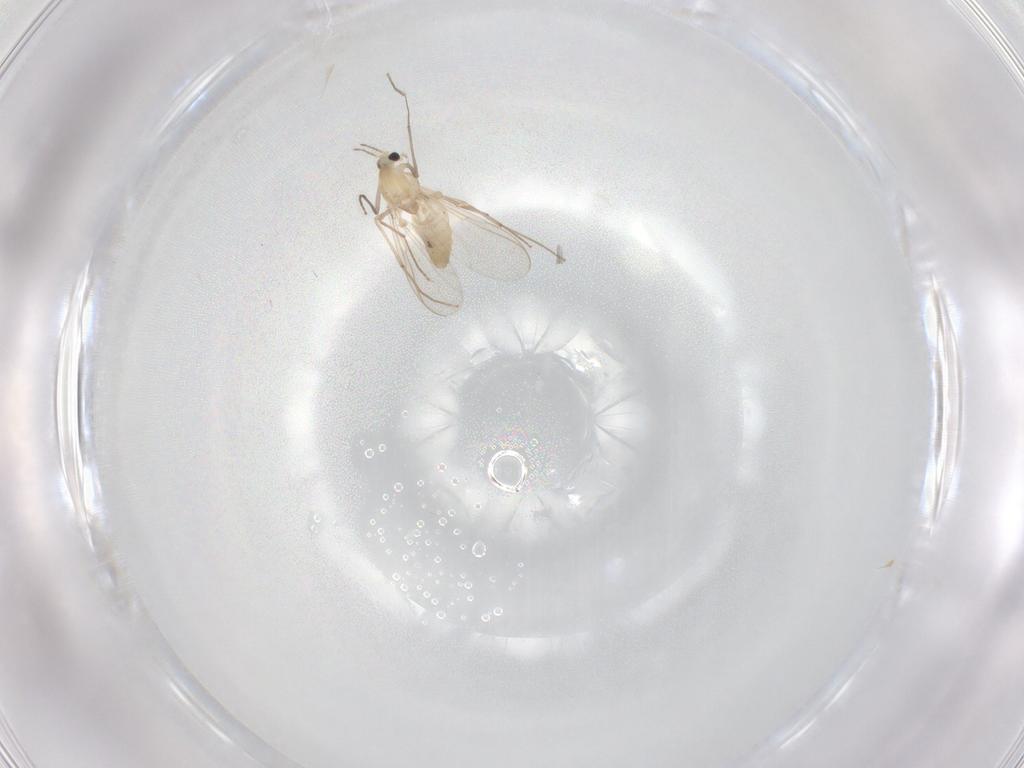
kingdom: Animalia
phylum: Arthropoda
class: Insecta
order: Diptera
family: Chironomidae
